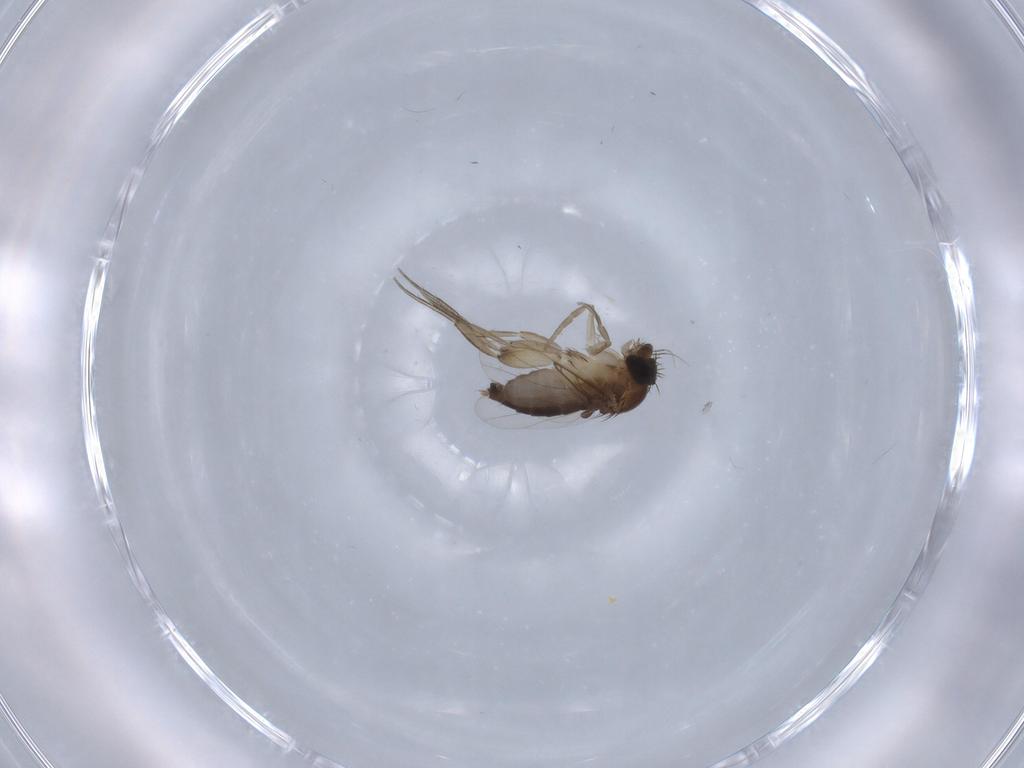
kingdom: Animalia
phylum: Arthropoda
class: Insecta
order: Diptera
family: Phoridae
